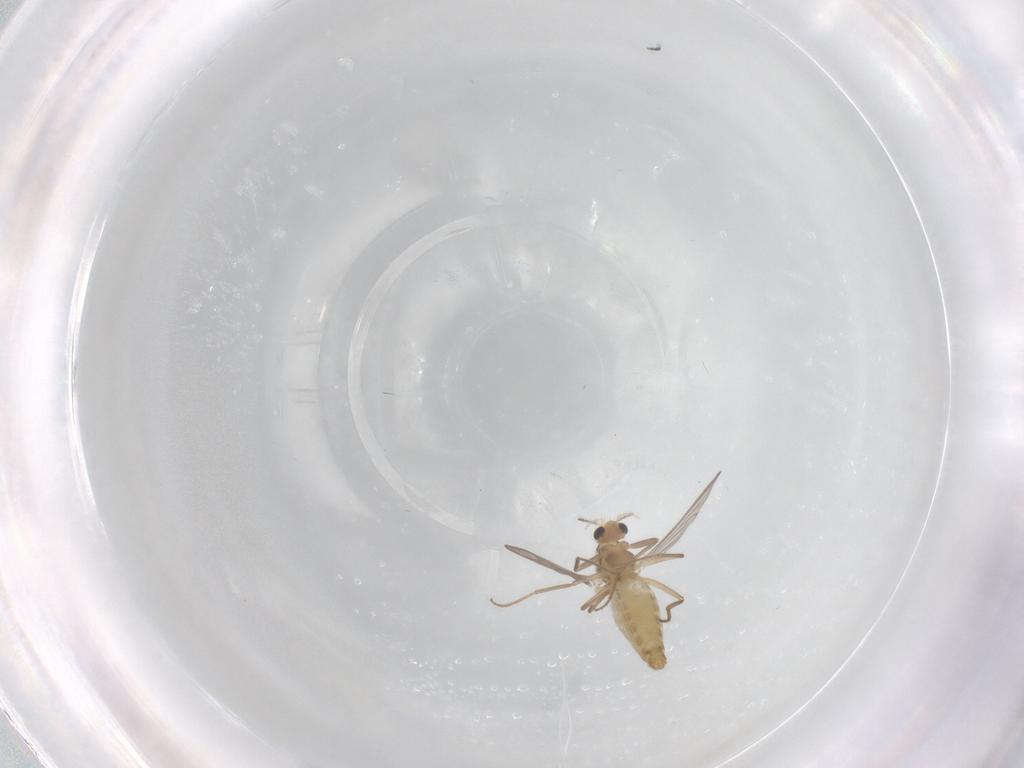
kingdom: Animalia
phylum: Arthropoda
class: Insecta
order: Diptera
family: Chironomidae
